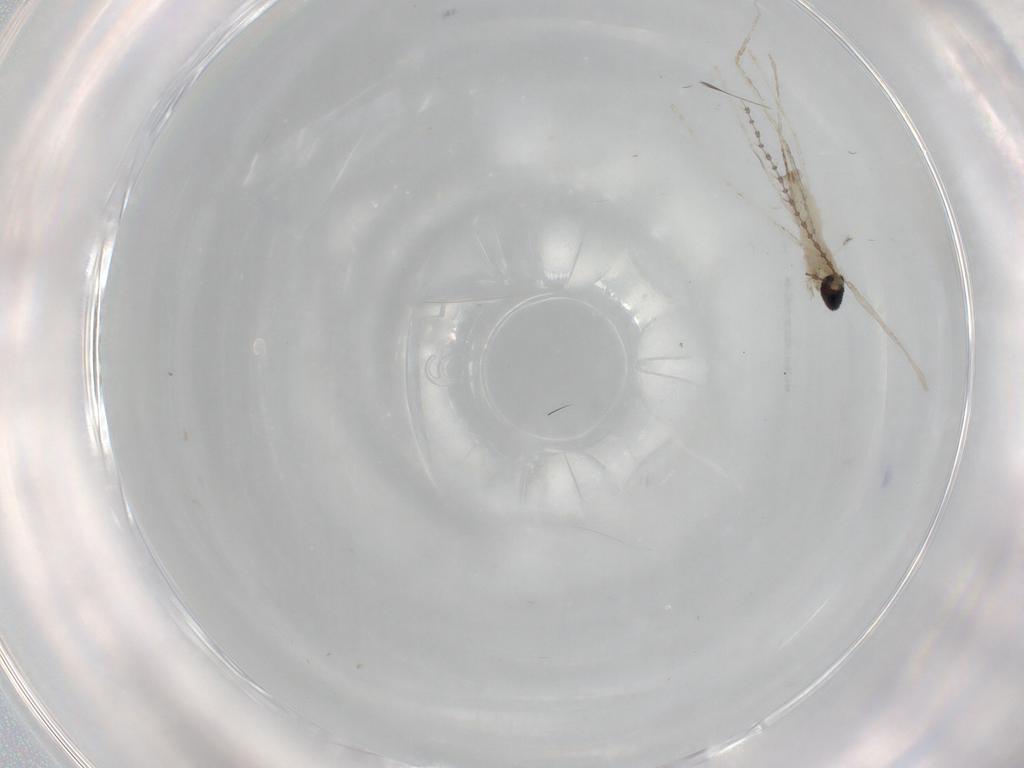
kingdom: Animalia
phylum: Arthropoda
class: Insecta
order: Diptera
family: Cecidomyiidae
